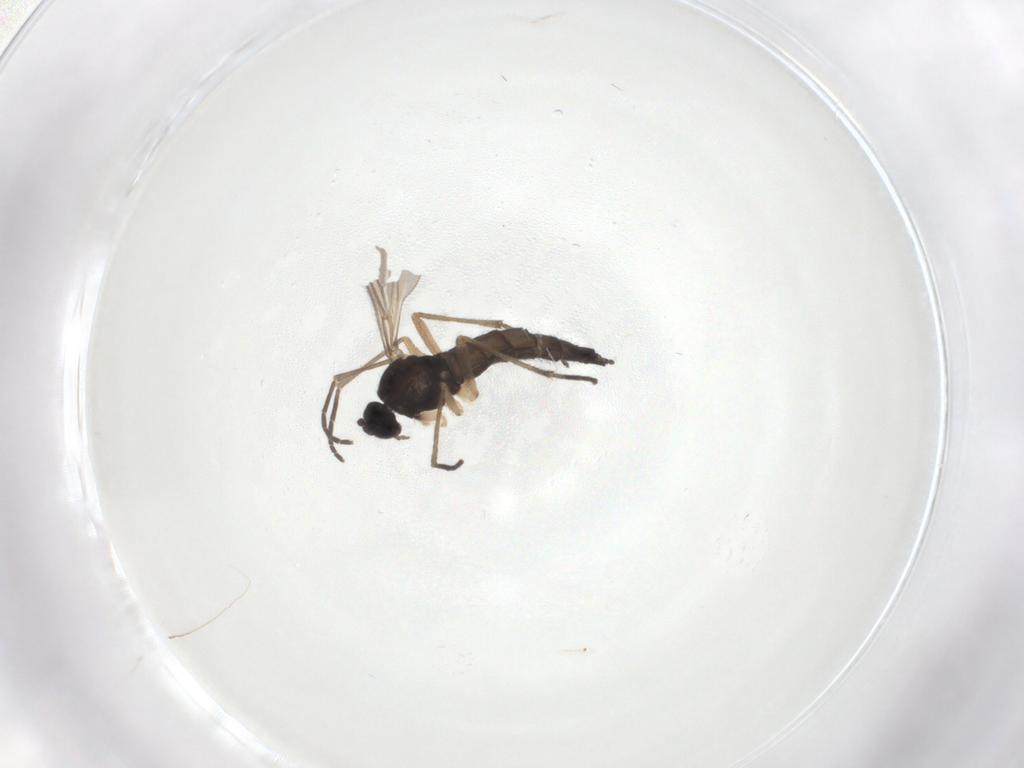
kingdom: Animalia
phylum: Arthropoda
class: Insecta
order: Diptera
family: Sciaridae
